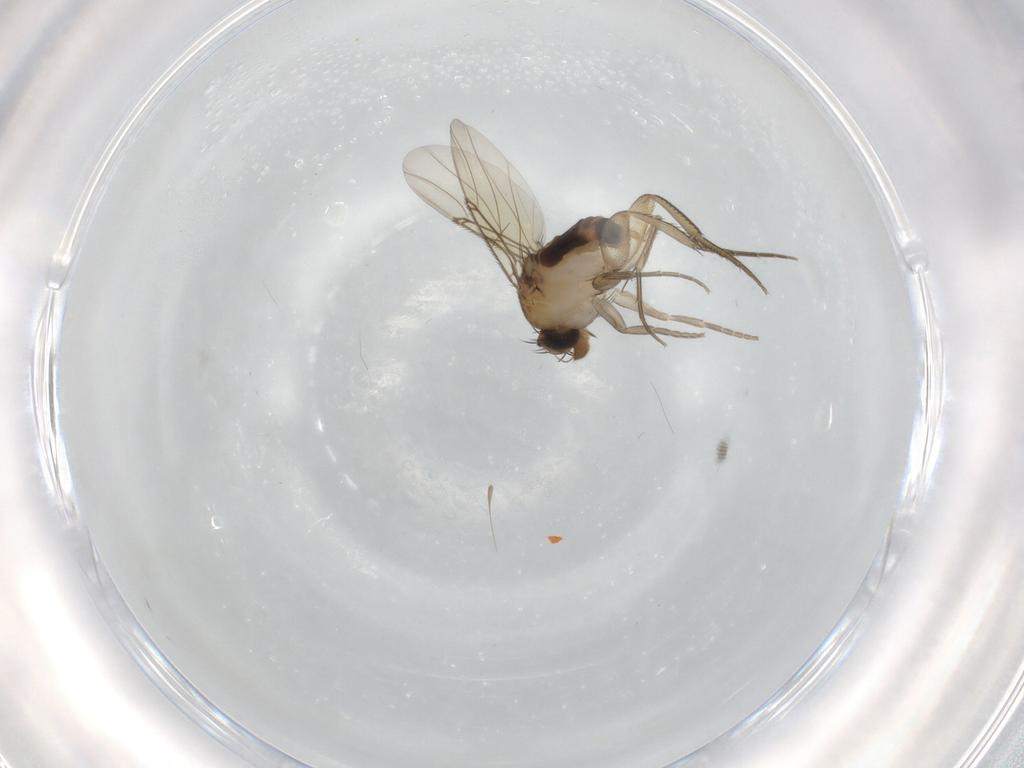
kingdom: Animalia
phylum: Arthropoda
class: Insecta
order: Diptera
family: Phoridae
